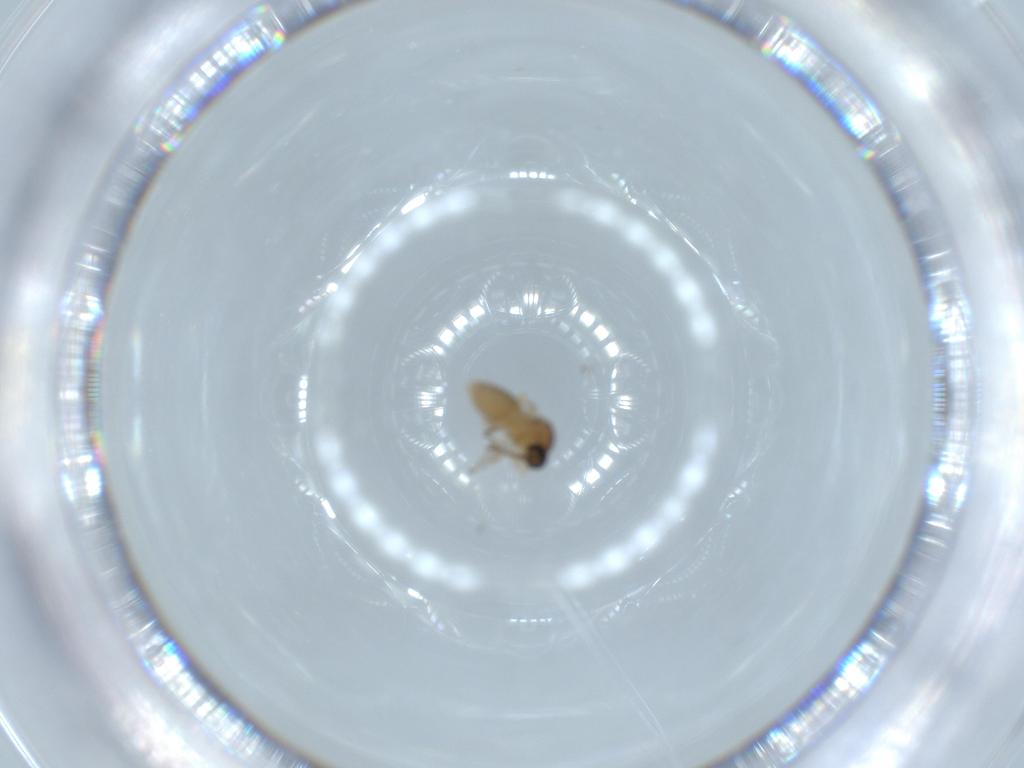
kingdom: Animalia
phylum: Arthropoda
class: Insecta
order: Diptera
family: Ceratopogonidae
